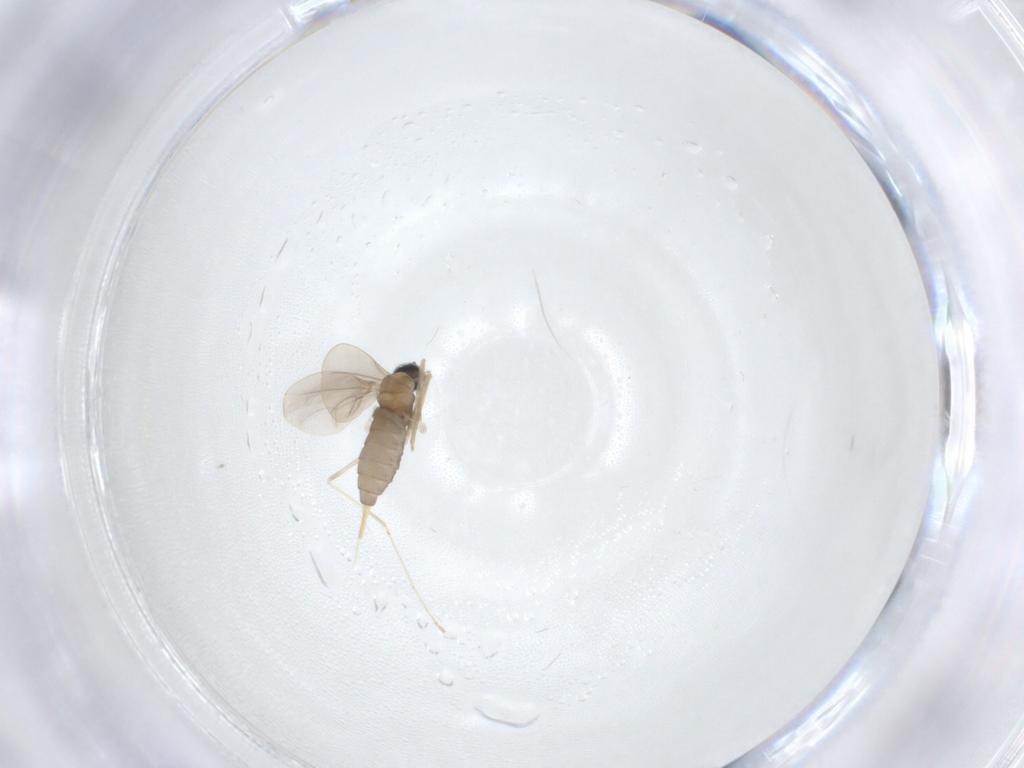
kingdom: Animalia
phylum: Arthropoda
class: Insecta
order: Diptera
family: Cecidomyiidae
